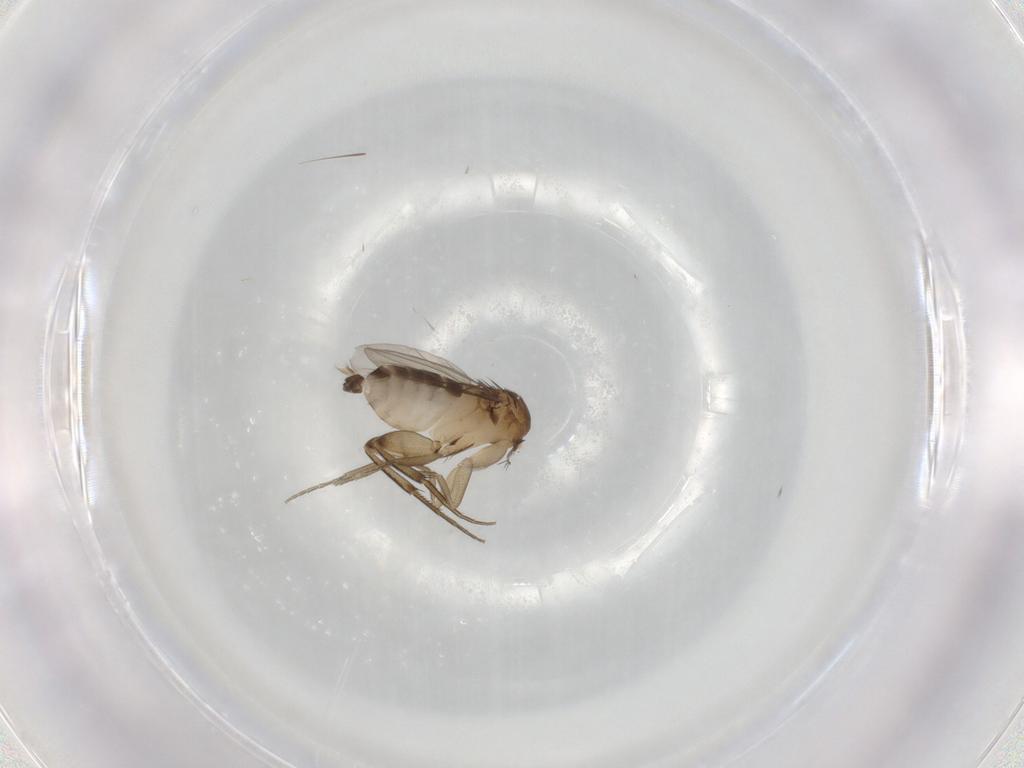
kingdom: Animalia
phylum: Arthropoda
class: Insecta
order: Diptera
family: Phoridae
